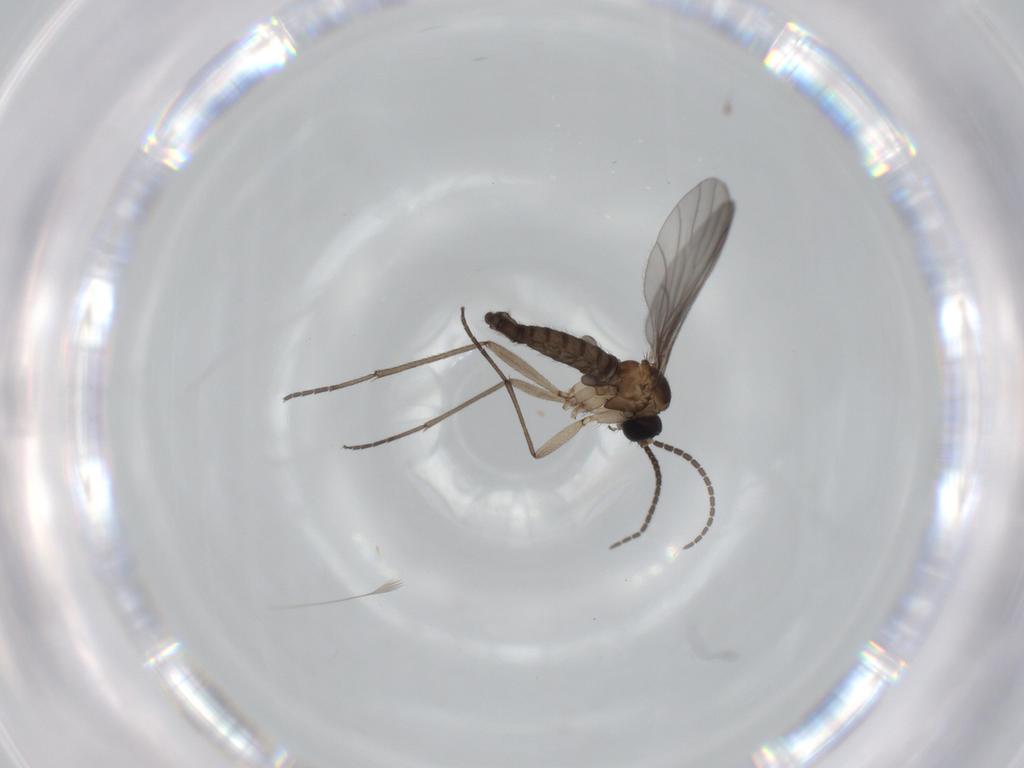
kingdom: Animalia
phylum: Arthropoda
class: Insecta
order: Diptera
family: Sciaridae
